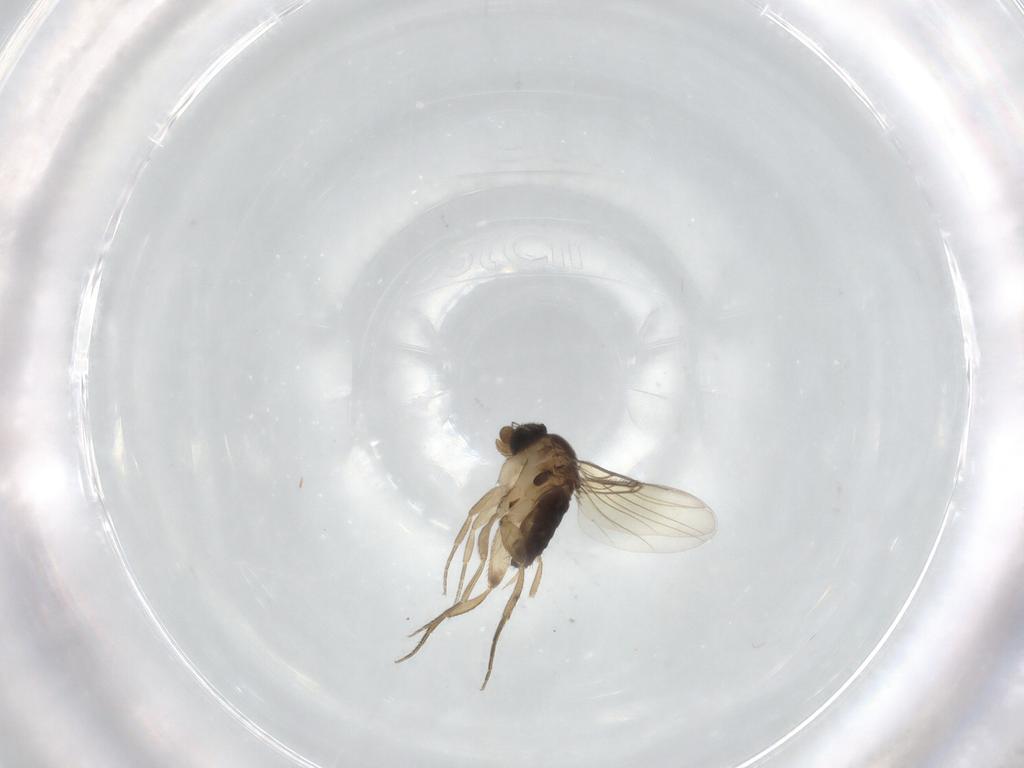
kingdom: Animalia
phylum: Arthropoda
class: Insecta
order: Diptera
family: Phoridae
